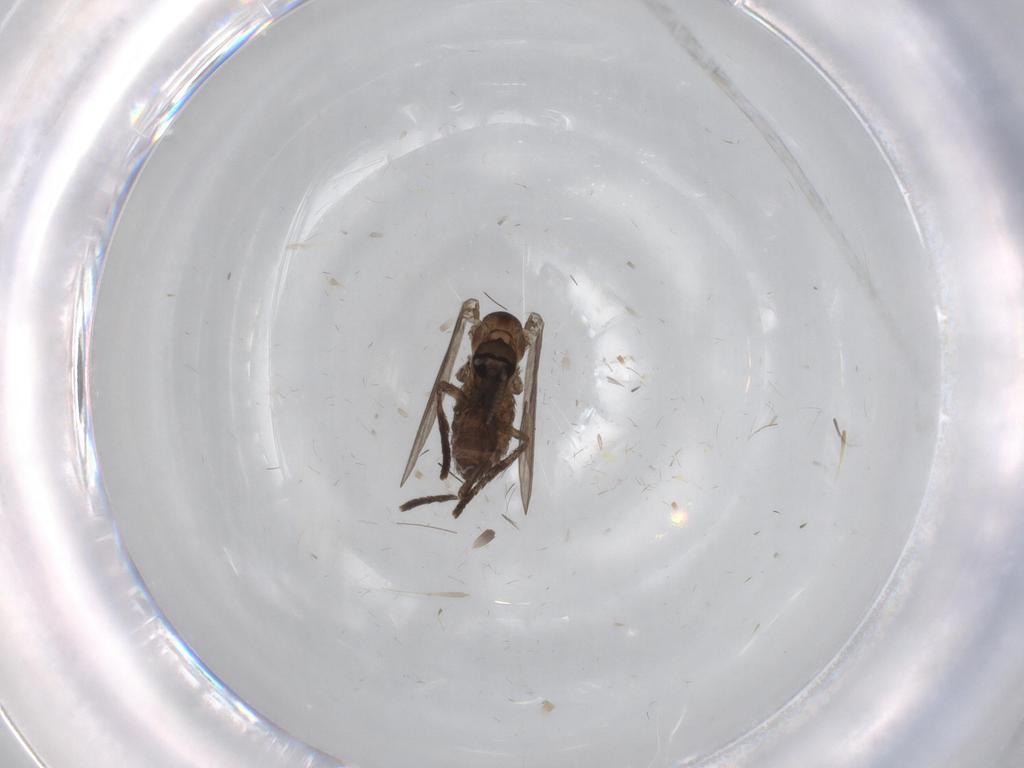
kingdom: Animalia
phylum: Arthropoda
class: Insecta
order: Diptera
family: Psychodidae
